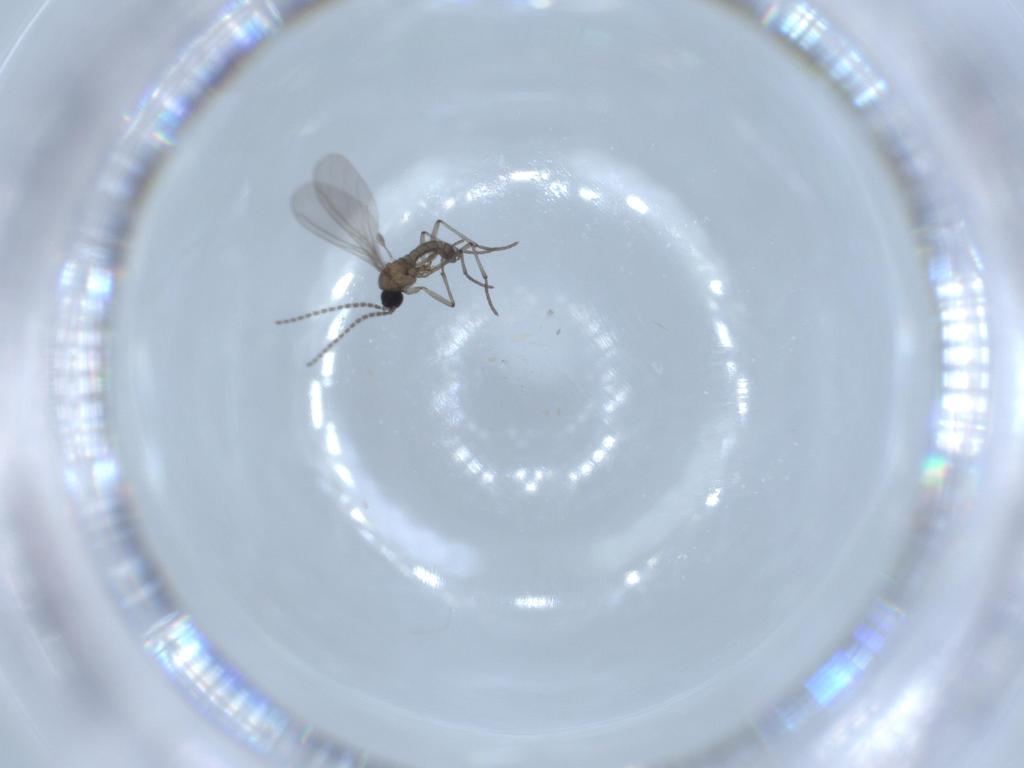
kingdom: Animalia
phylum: Arthropoda
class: Insecta
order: Diptera
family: Sciaridae
